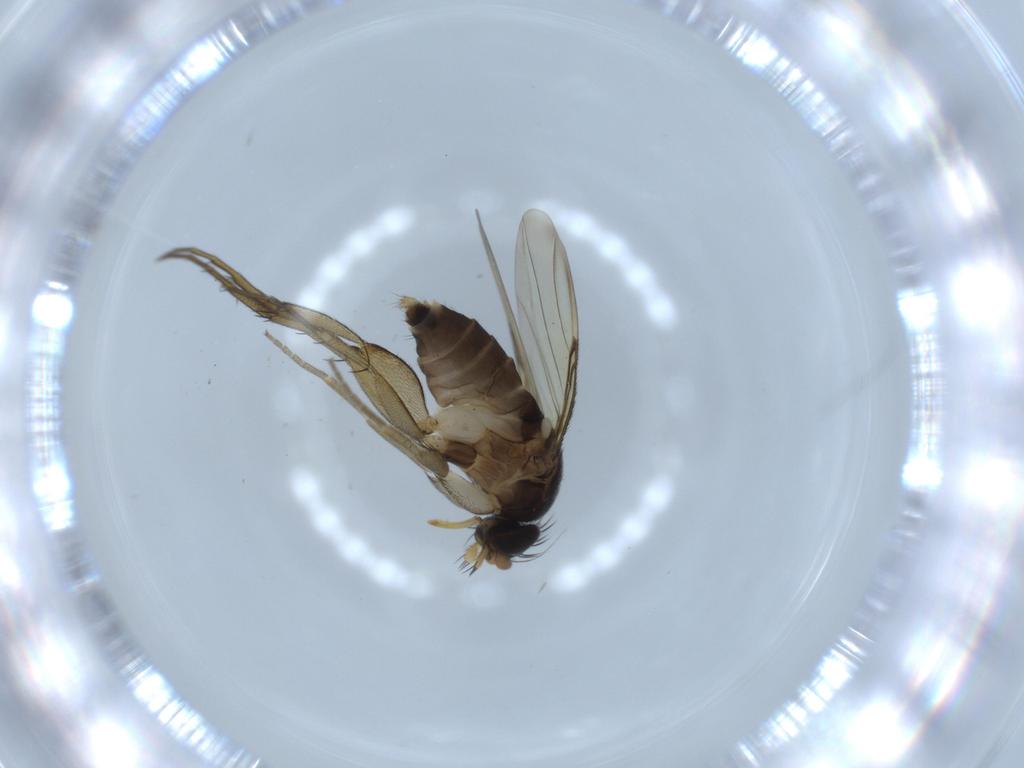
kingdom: Animalia
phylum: Arthropoda
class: Insecta
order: Diptera
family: Phoridae
